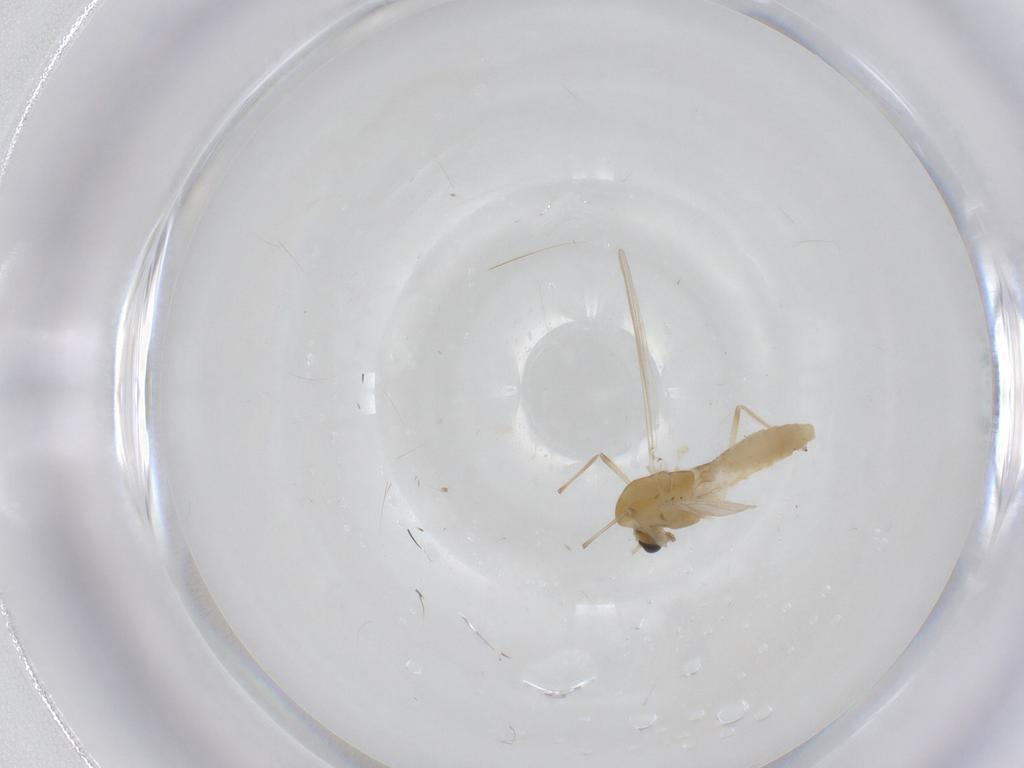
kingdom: Animalia
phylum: Arthropoda
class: Insecta
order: Diptera
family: Chironomidae
